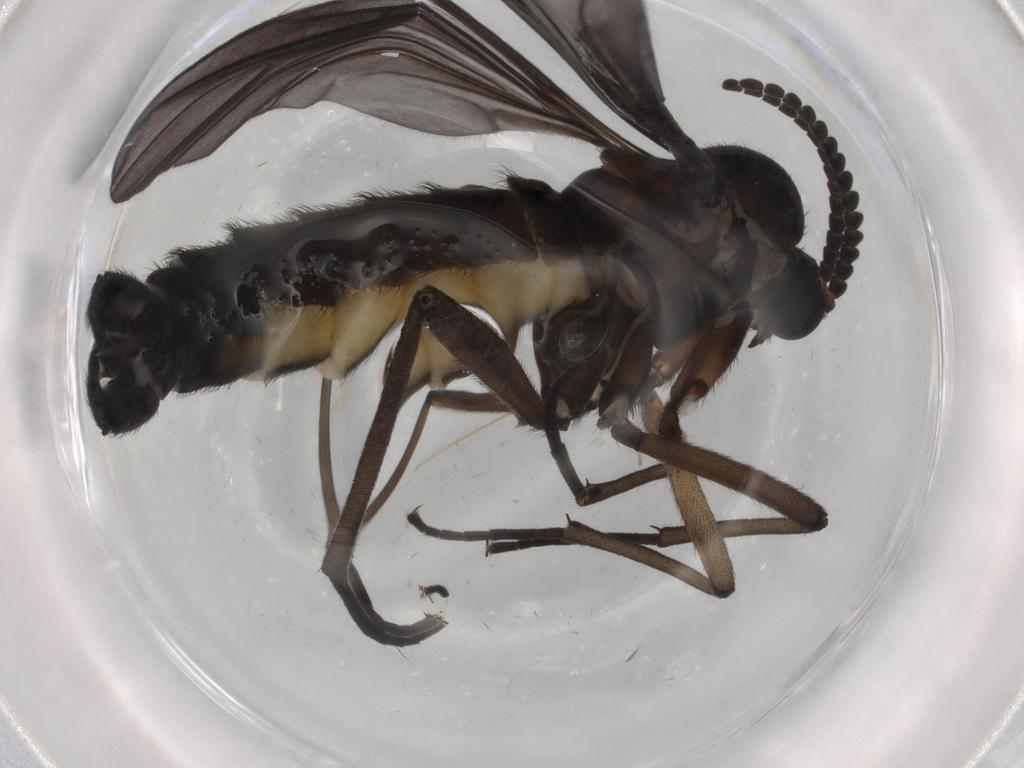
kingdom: Animalia
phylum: Arthropoda
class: Insecta
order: Diptera
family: Sciaridae
